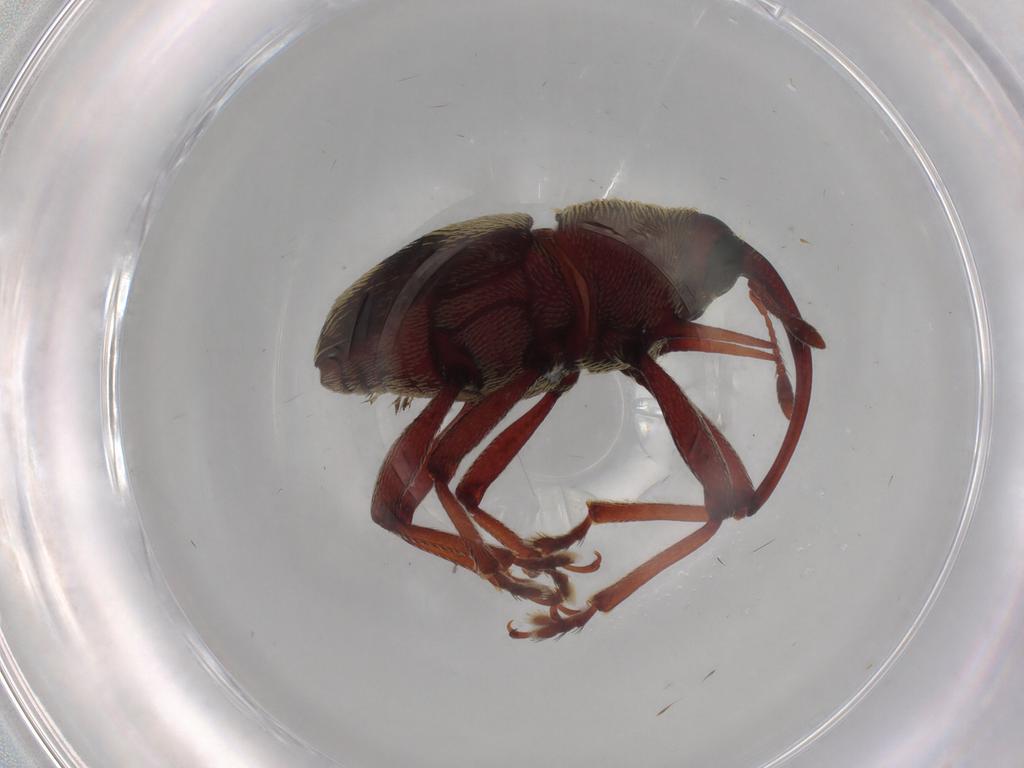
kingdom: Animalia
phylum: Arthropoda
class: Insecta
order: Coleoptera
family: Curculionidae
